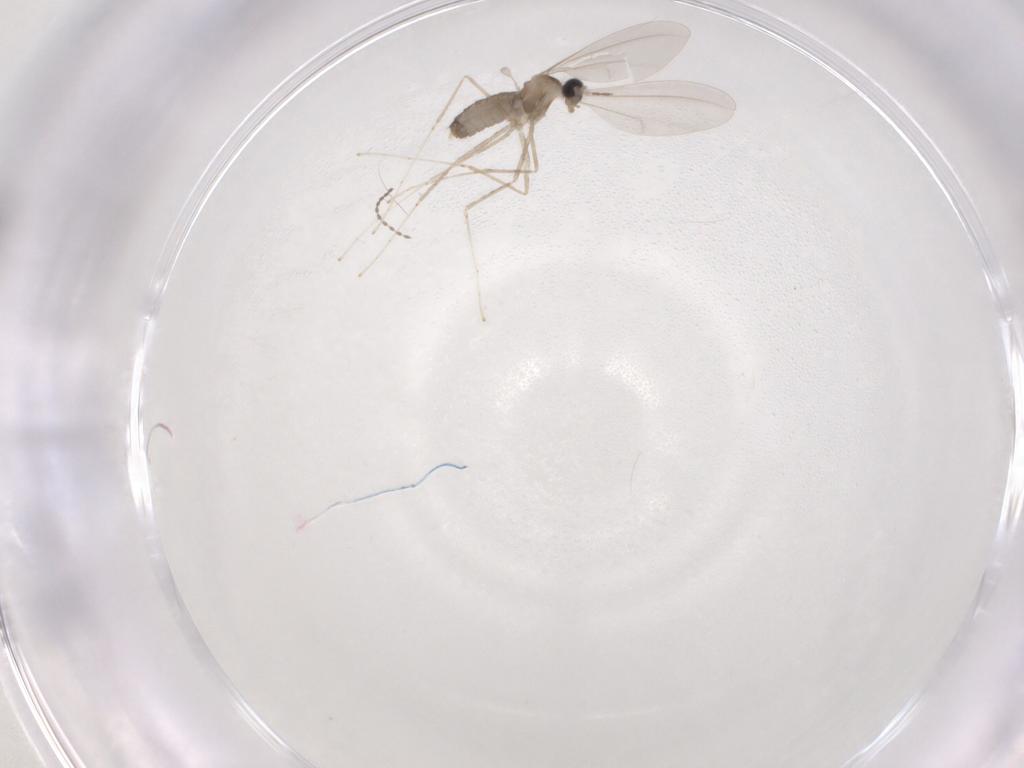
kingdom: Animalia
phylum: Arthropoda
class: Insecta
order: Diptera
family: Cecidomyiidae
